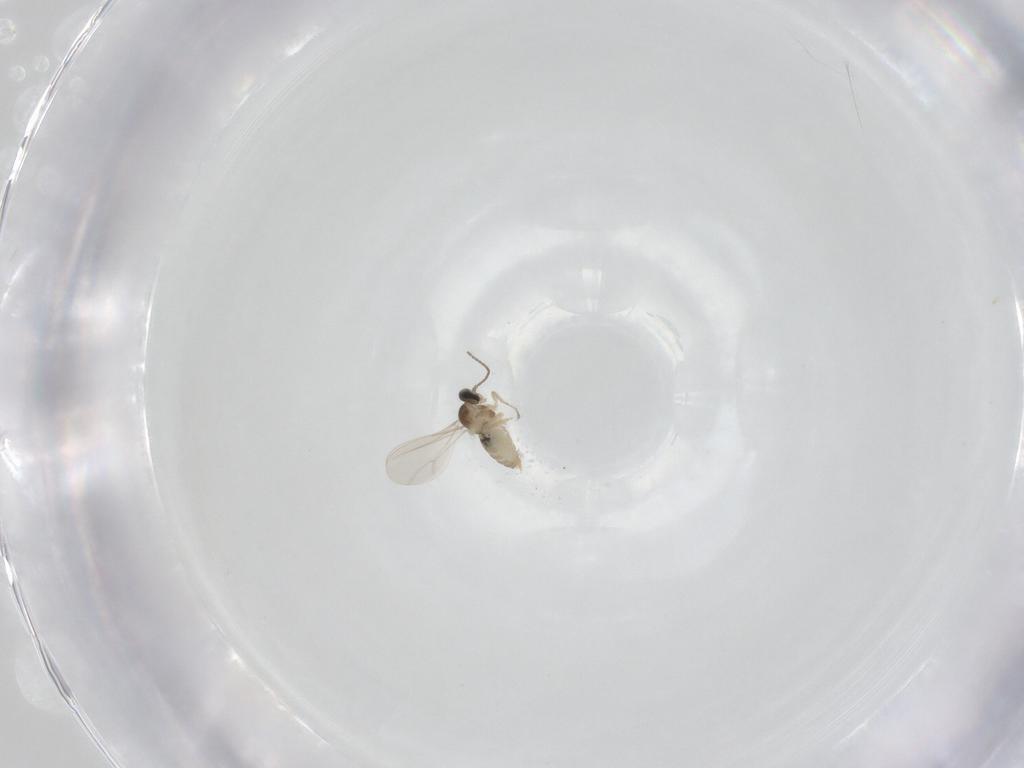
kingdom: Animalia
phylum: Arthropoda
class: Insecta
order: Diptera
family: Cecidomyiidae
